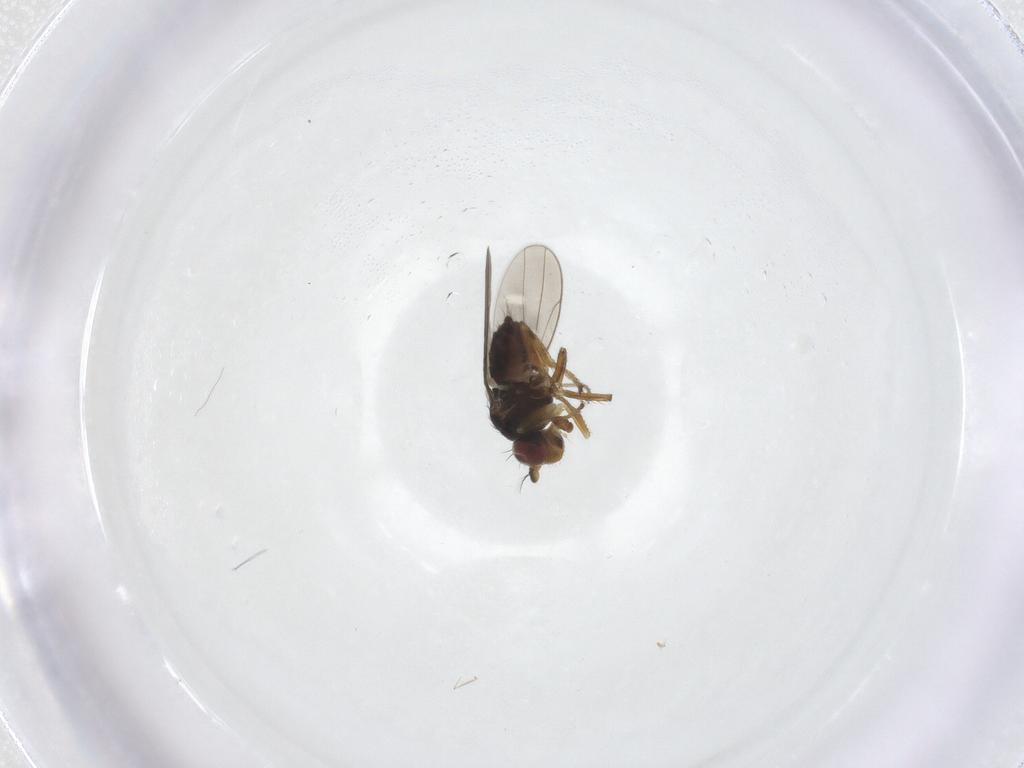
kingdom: Animalia
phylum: Arthropoda
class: Insecta
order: Diptera
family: Ephydridae
